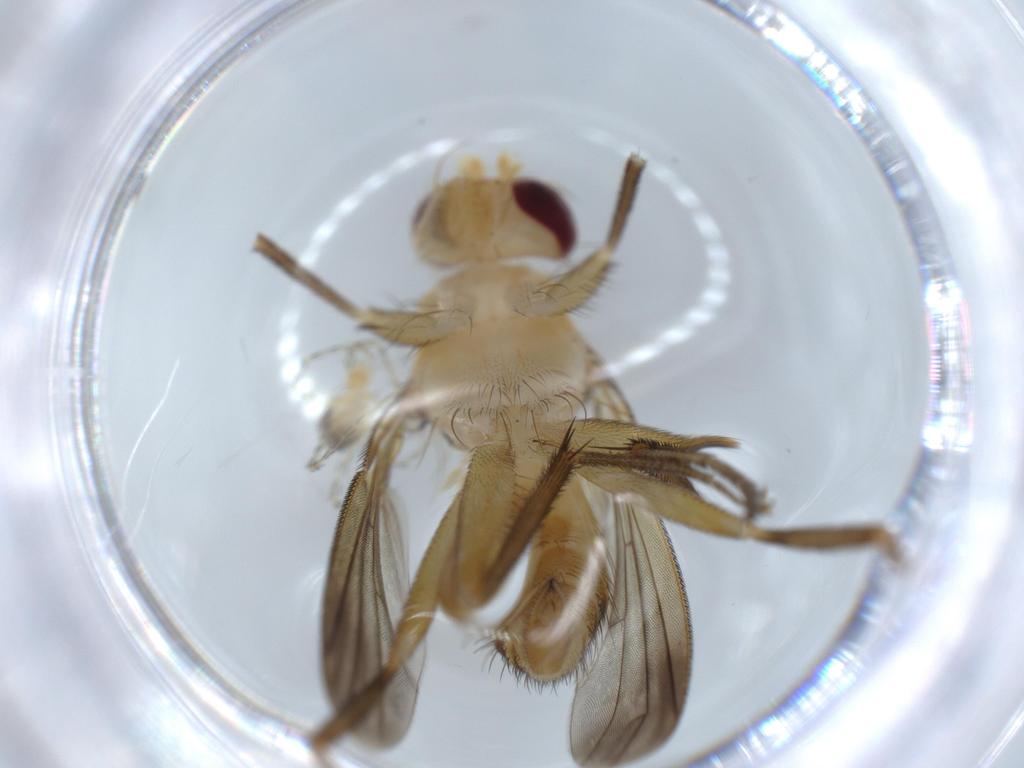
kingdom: Animalia
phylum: Arthropoda
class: Insecta
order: Diptera
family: Clusiidae
